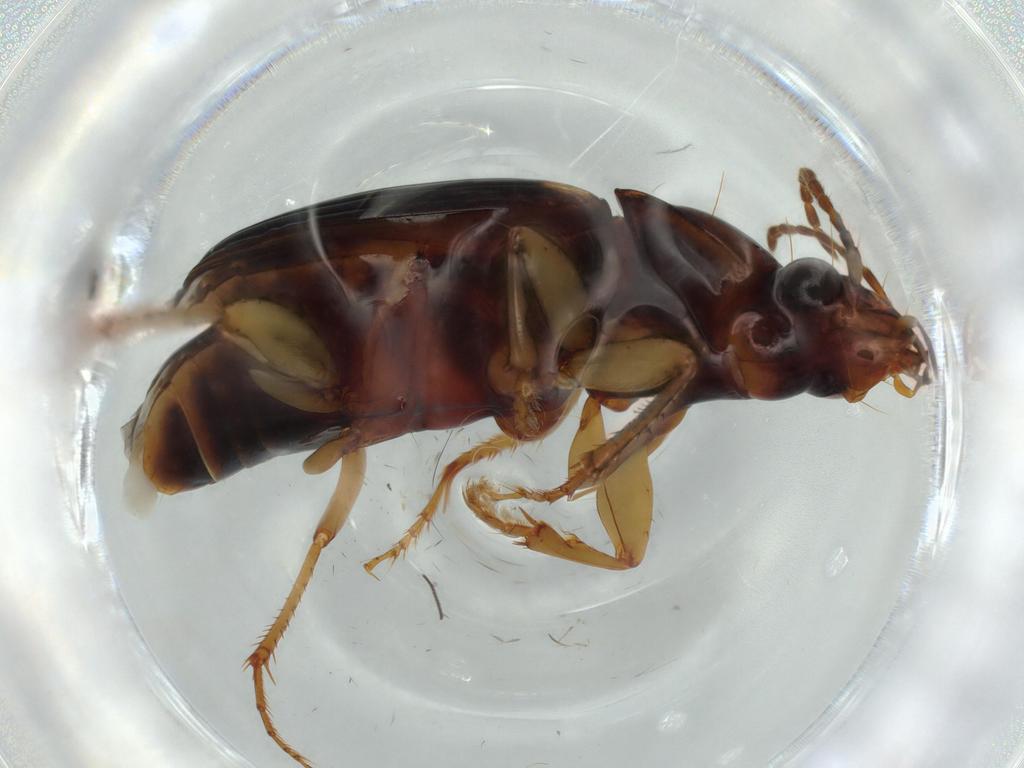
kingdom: Animalia
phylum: Arthropoda
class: Insecta
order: Coleoptera
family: Carabidae
